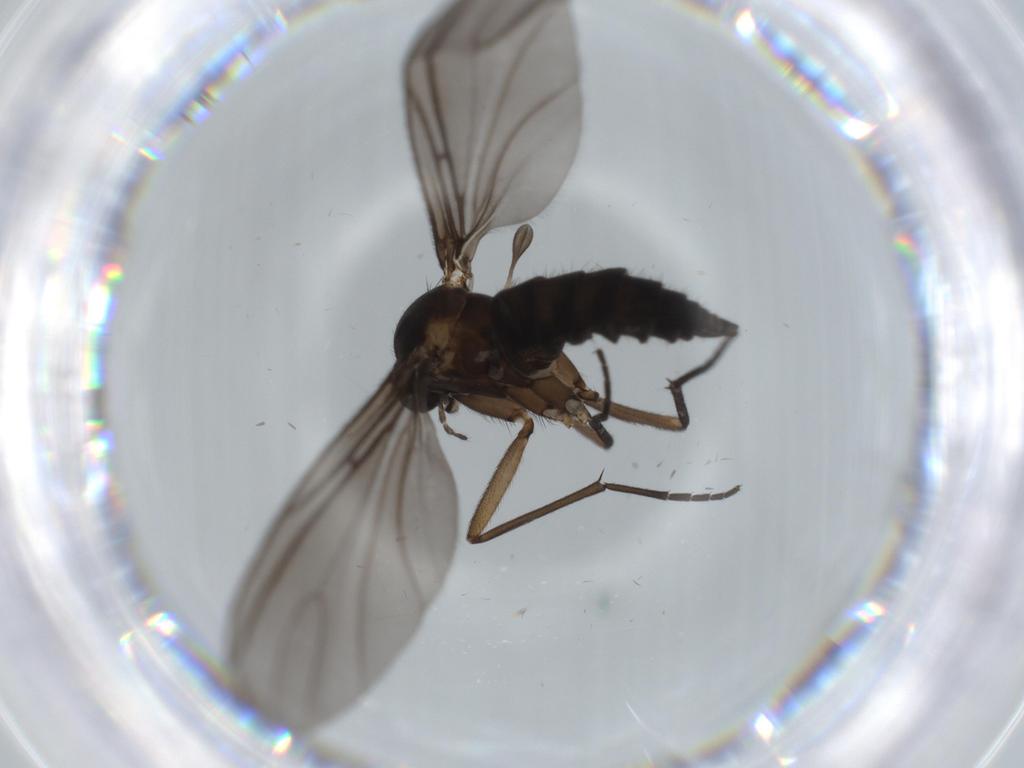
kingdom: Animalia
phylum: Arthropoda
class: Insecta
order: Diptera
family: Sciaridae
